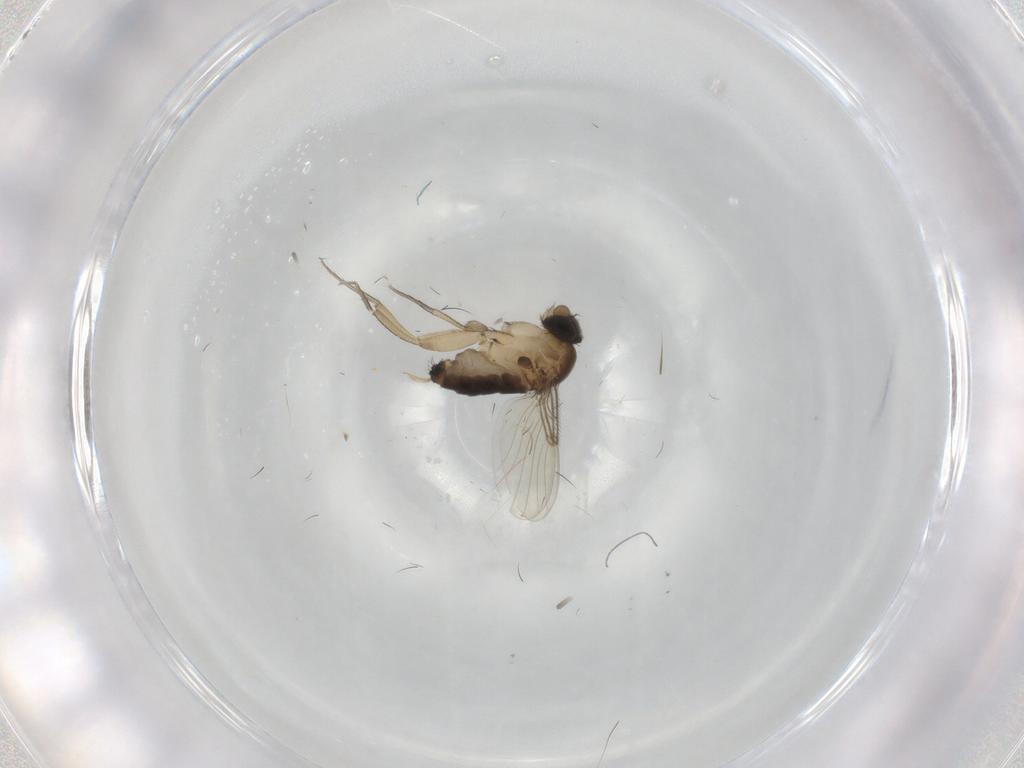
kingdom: Animalia
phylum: Arthropoda
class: Insecta
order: Diptera
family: Phoridae
